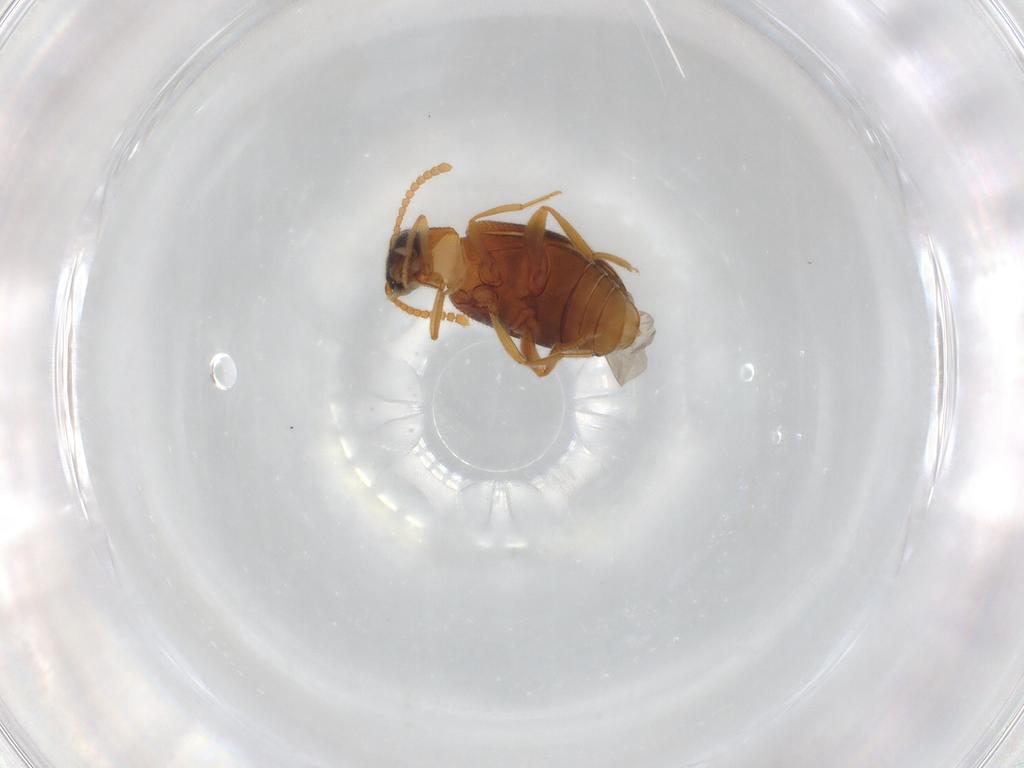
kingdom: Animalia
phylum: Arthropoda
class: Insecta
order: Coleoptera
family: Aderidae
